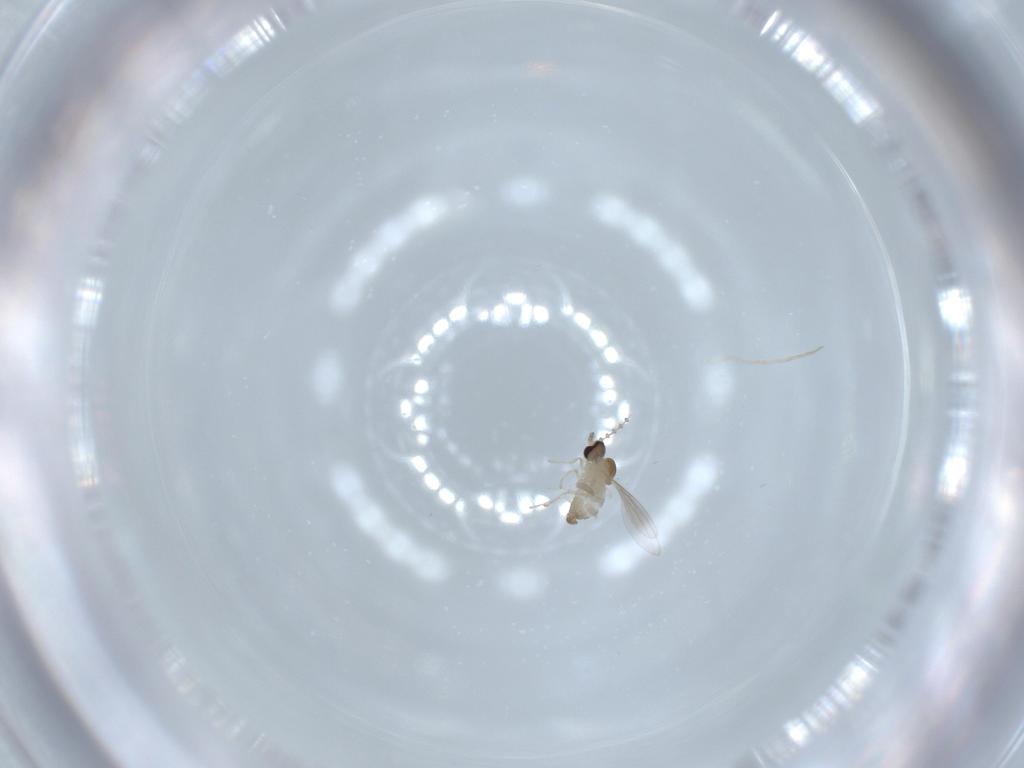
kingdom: Animalia
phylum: Arthropoda
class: Insecta
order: Diptera
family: Cecidomyiidae
